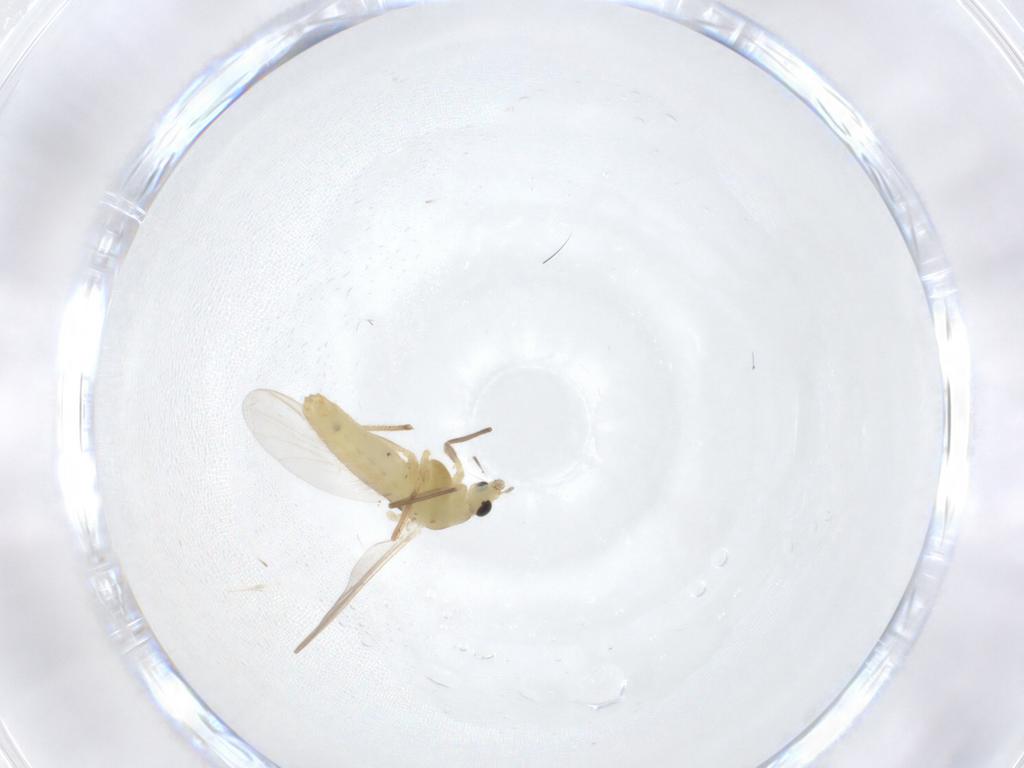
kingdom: Animalia
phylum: Arthropoda
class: Insecta
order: Diptera
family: Chironomidae
